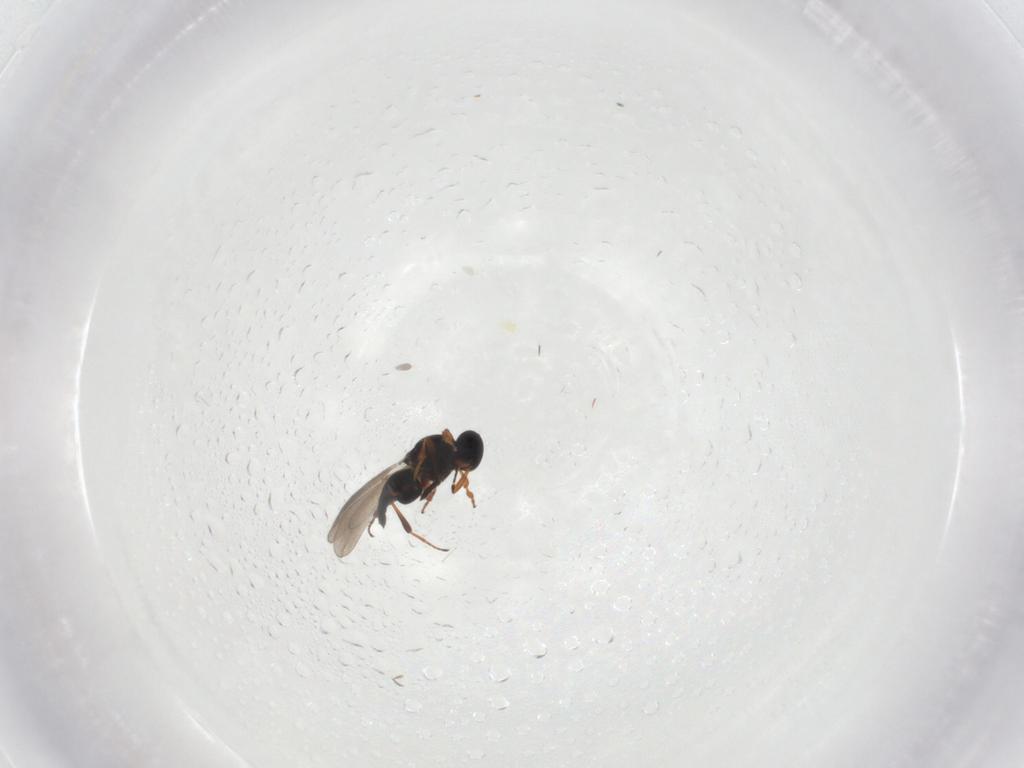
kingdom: Animalia
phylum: Arthropoda
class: Insecta
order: Hymenoptera
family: Platygastridae
